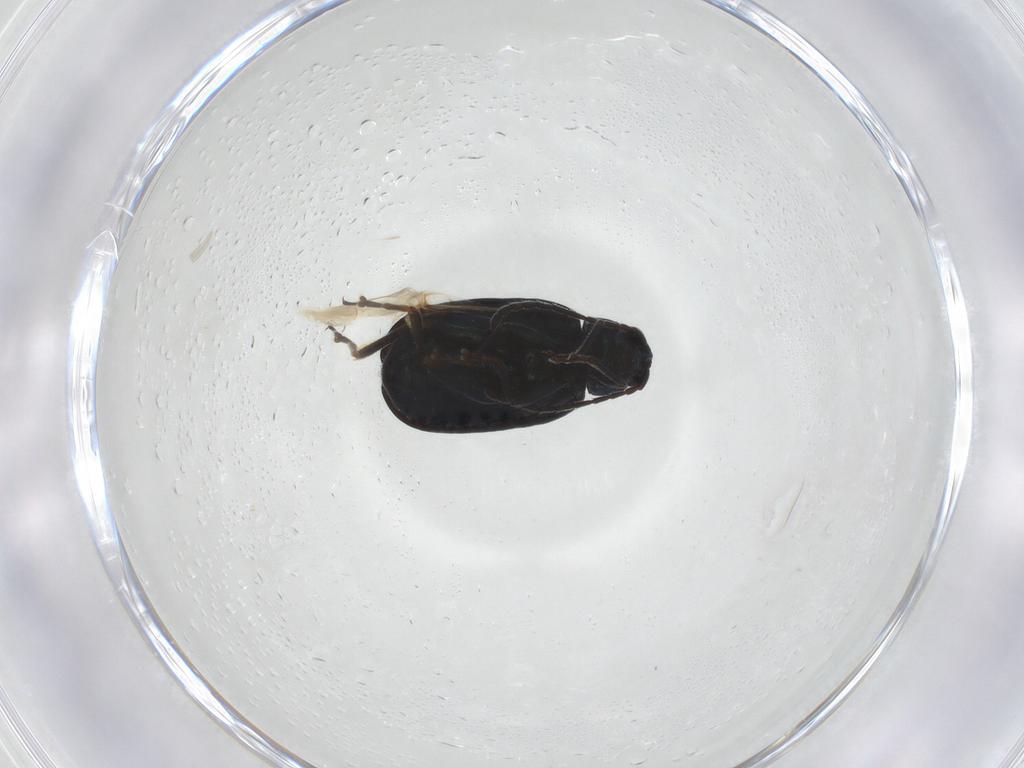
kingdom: Animalia
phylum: Arthropoda
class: Insecta
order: Coleoptera
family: Chrysomelidae
